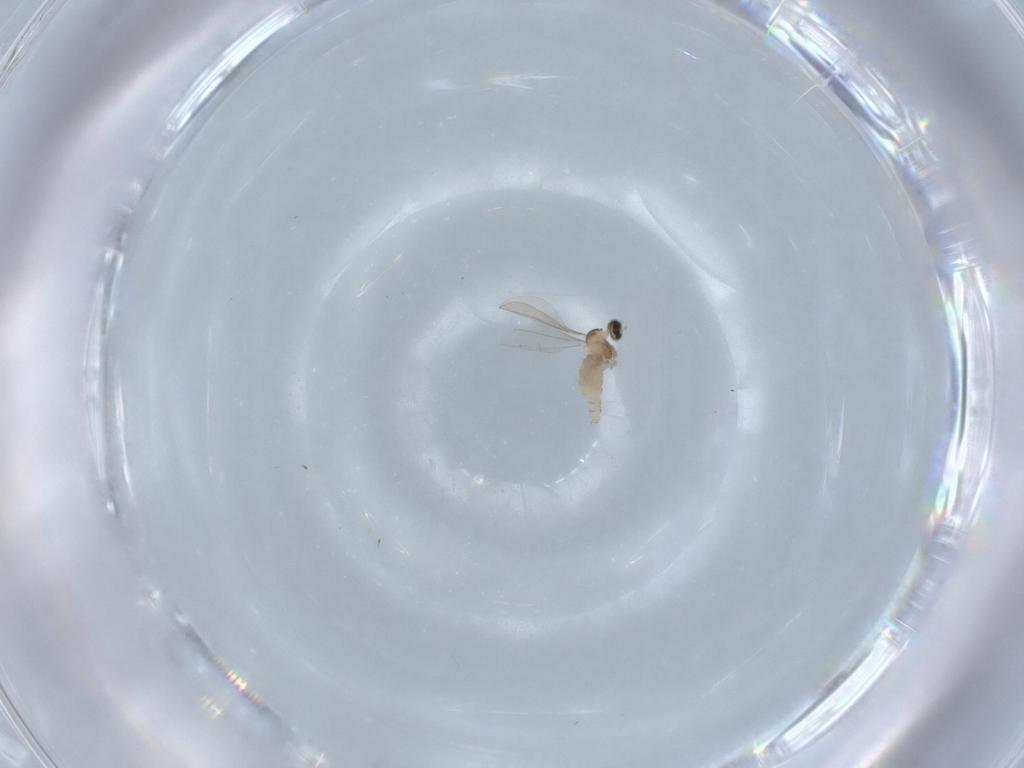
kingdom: Animalia
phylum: Arthropoda
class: Insecta
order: Diptera
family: Cecidomyiidae
